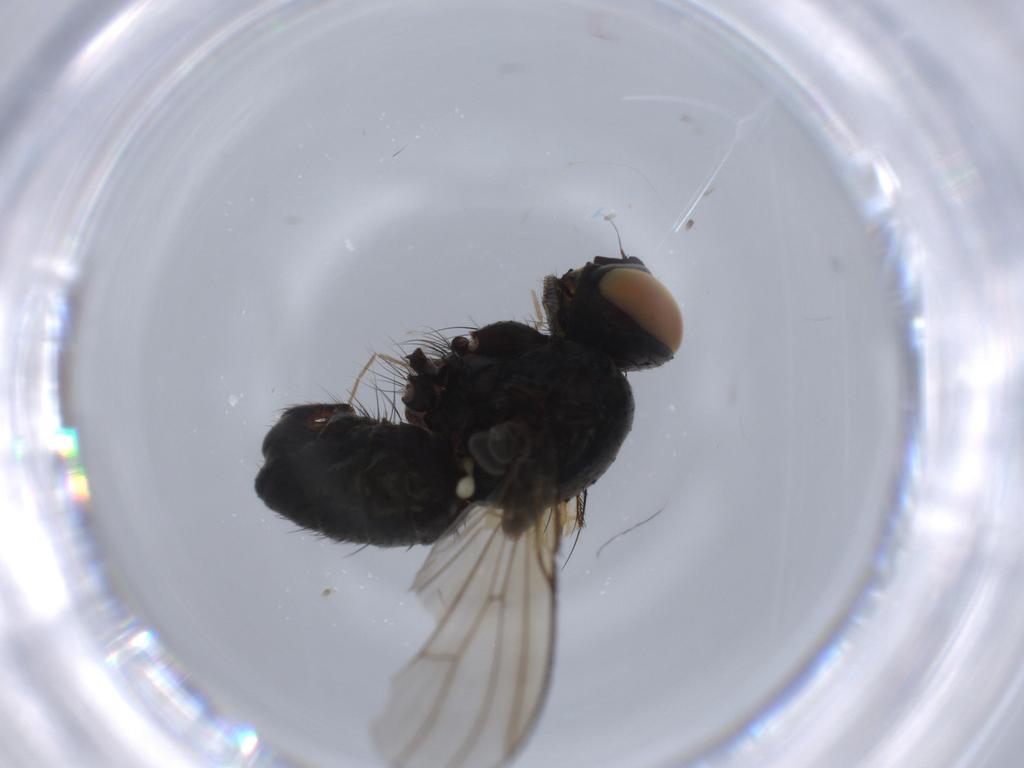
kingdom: Animalia
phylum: Arthropoda
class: Insecta
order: Diptera
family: Muscidae
